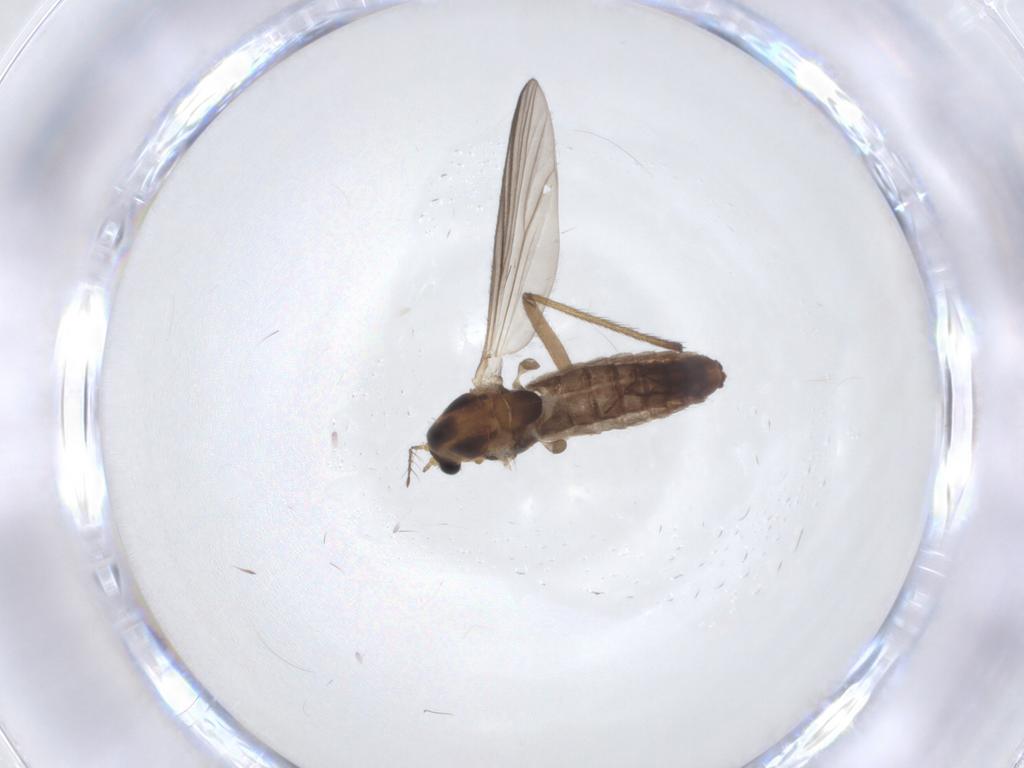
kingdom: Animalia
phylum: Arthropoda
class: Insecta
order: Diptera
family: Chironomidae
